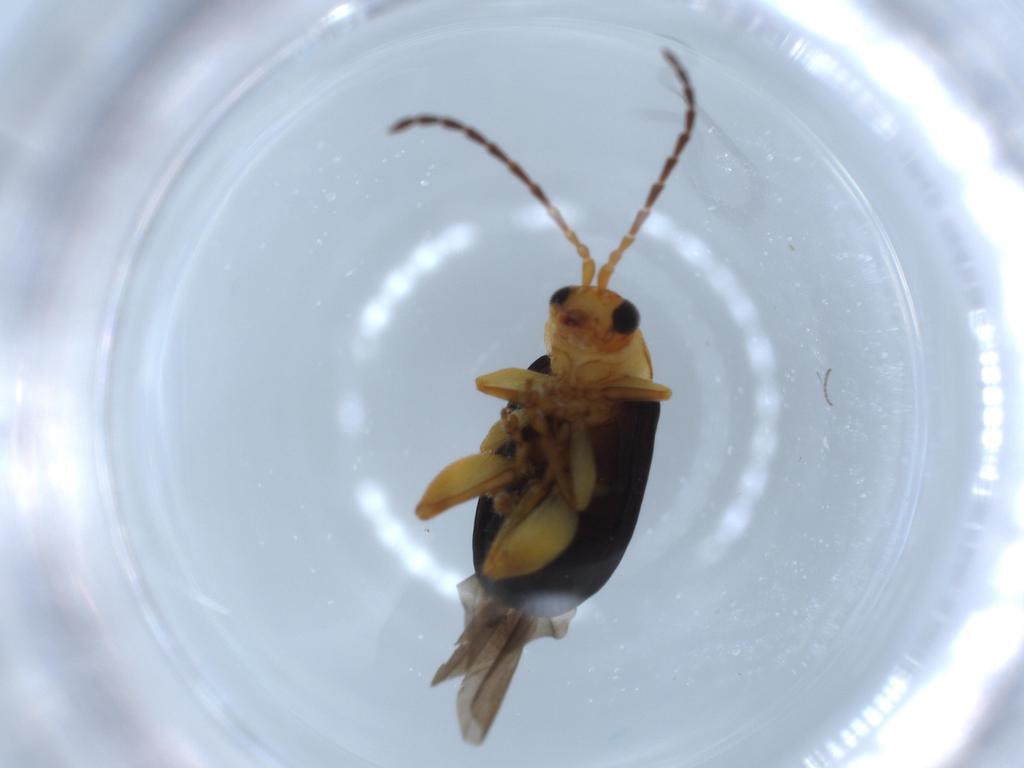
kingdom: Animalia
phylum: Arthropoda
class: Insecta
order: Coleoptera
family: Chrysomelidae
